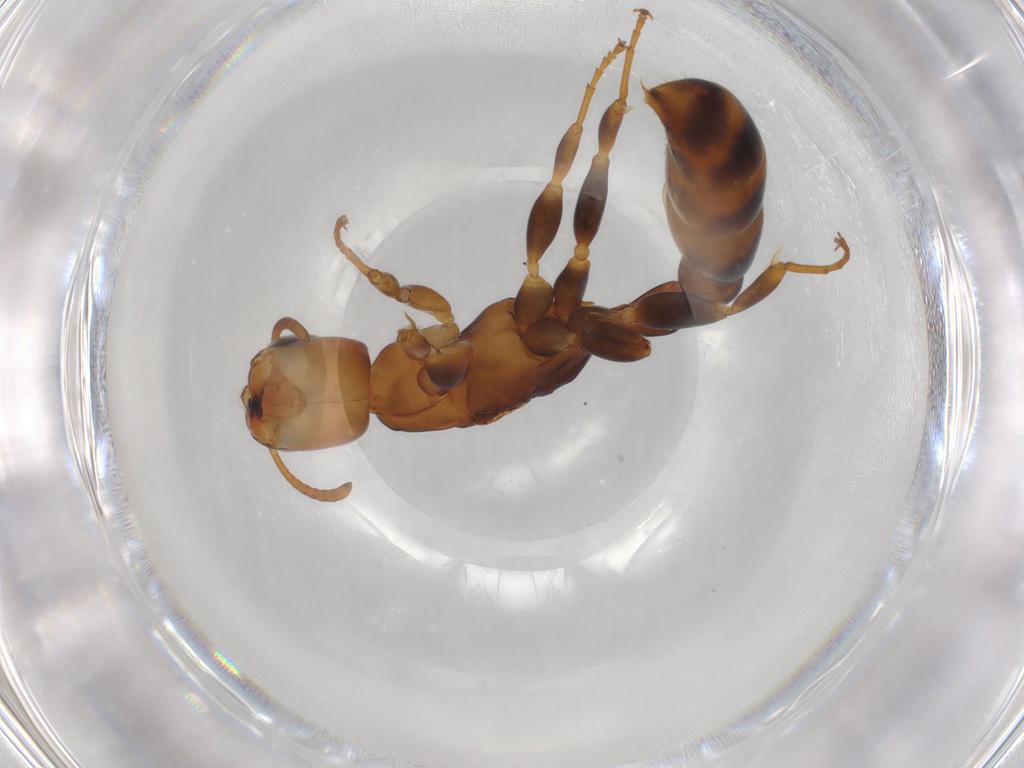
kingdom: Animalia
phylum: Arthropoda
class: Insecta
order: Hymenoptera
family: Formicidae
